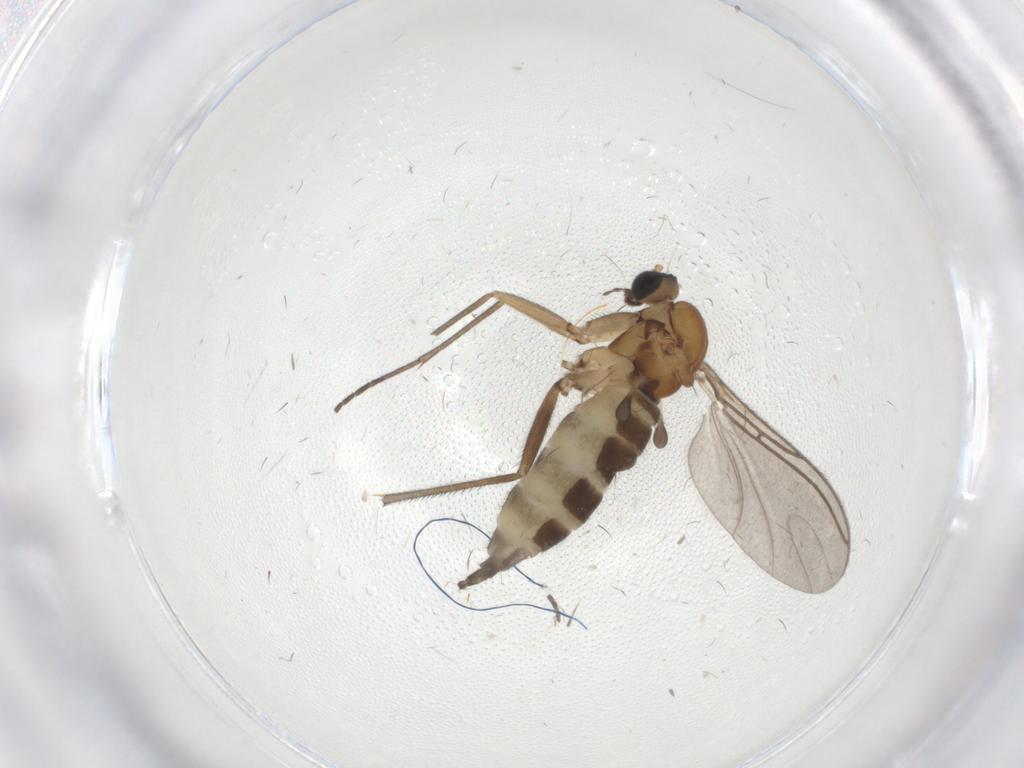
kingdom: Animalia
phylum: Arthropoda
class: Insecta
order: Diptera
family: Sciaridae
